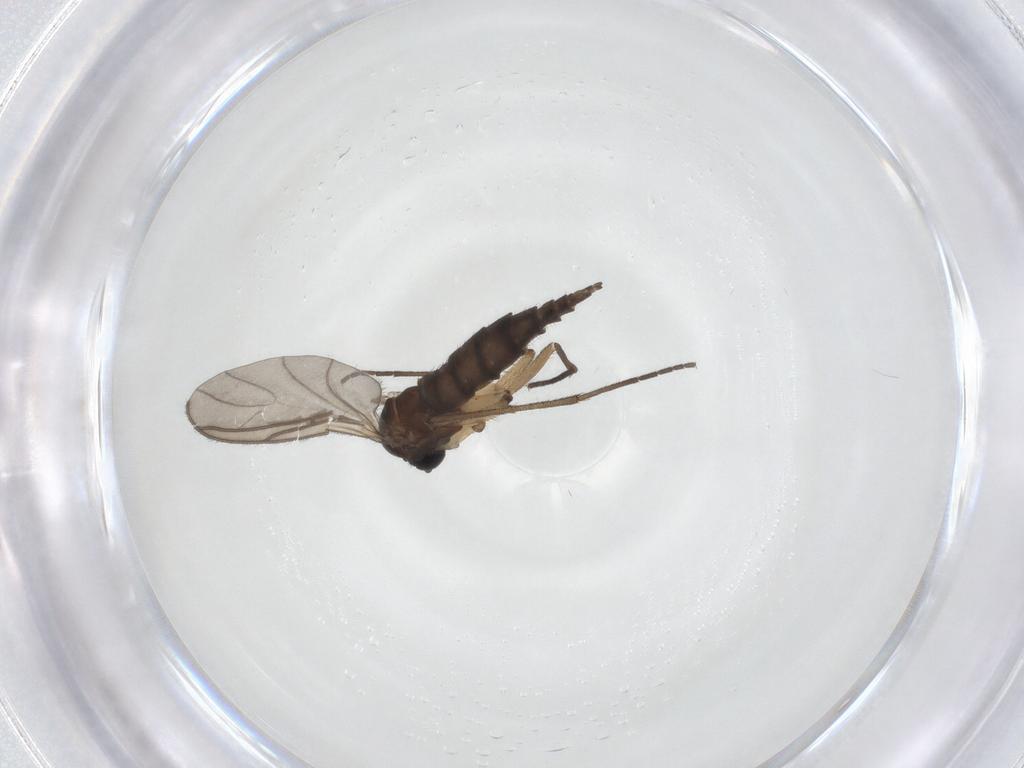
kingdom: Animalia
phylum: Arthropoda
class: Insecta
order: Diptera
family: Sciaridae
